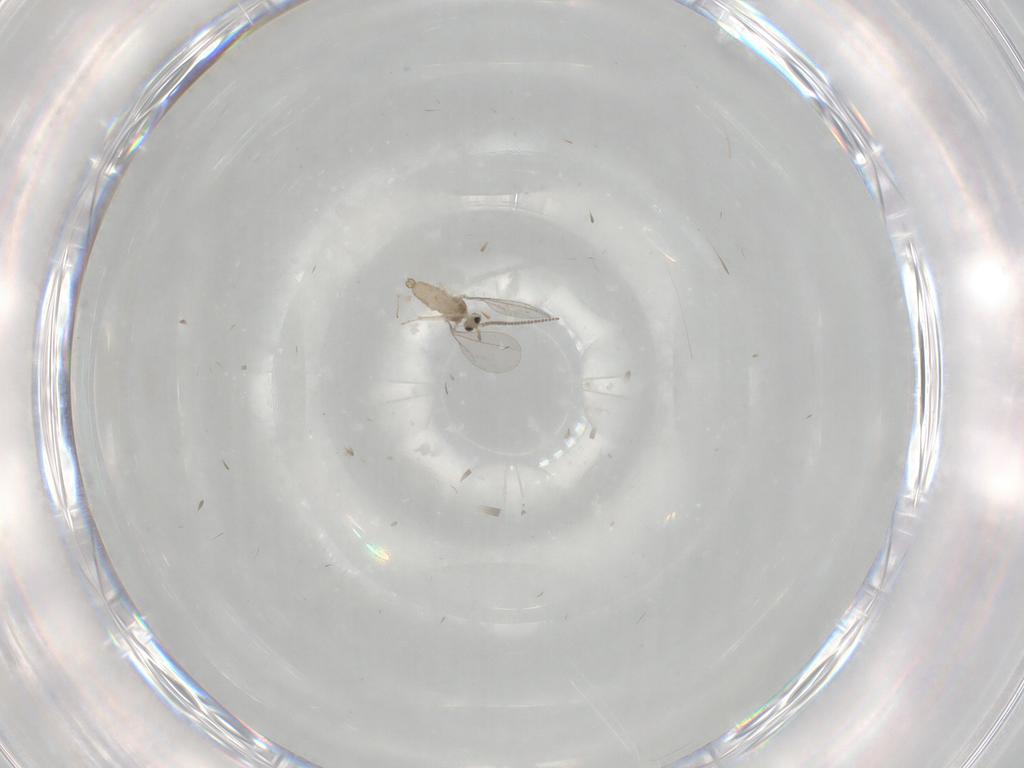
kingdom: Animalia
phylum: Arthropoda
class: Insecta
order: Diptera
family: Cecidomyiidae
